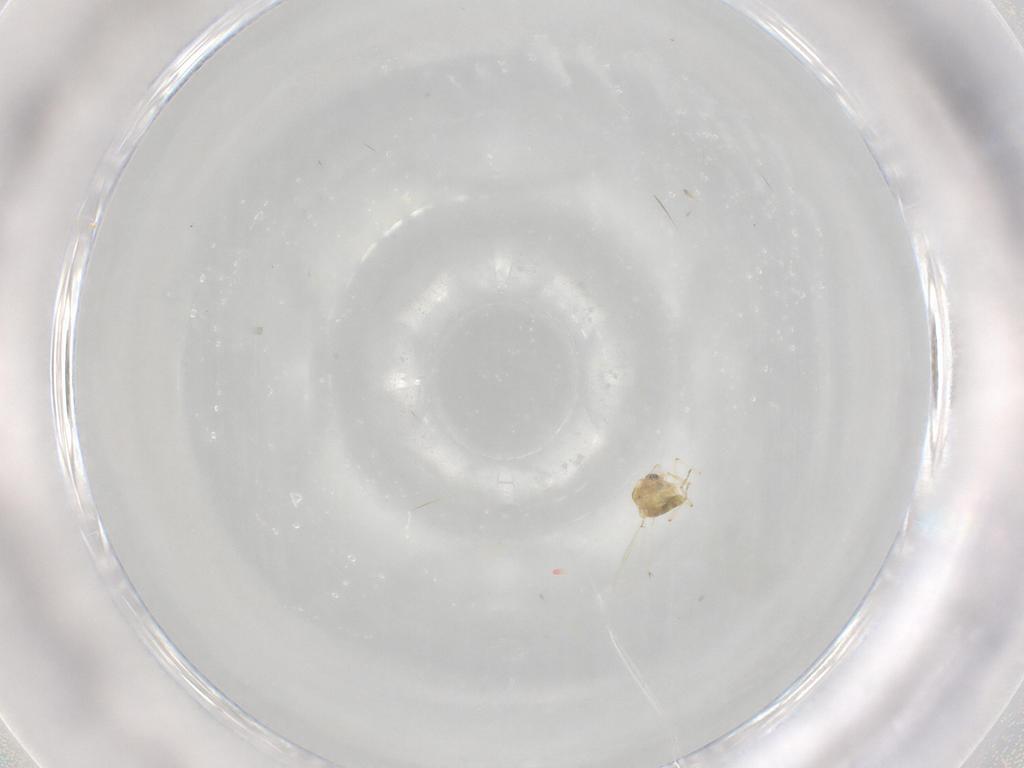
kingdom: Animalia
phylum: Arthropoda
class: Insecta
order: Diptera
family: Chironomidae
